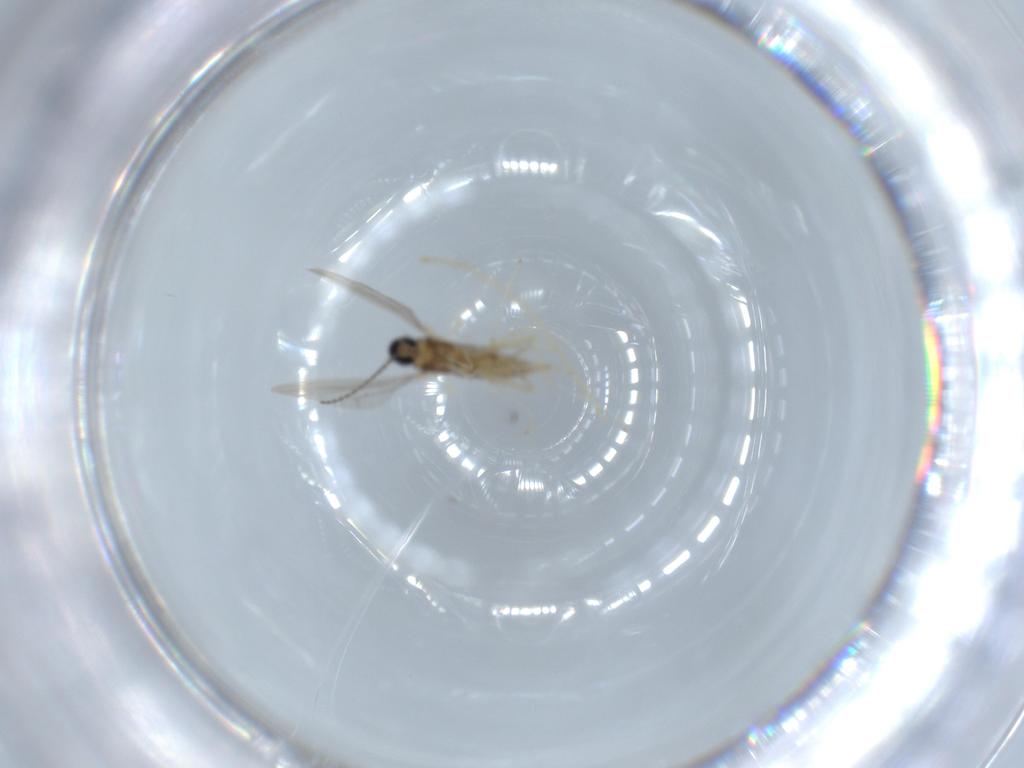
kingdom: Animalia
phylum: Arthropoda
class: Insecta
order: Diptera
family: Cecidomyiidae
